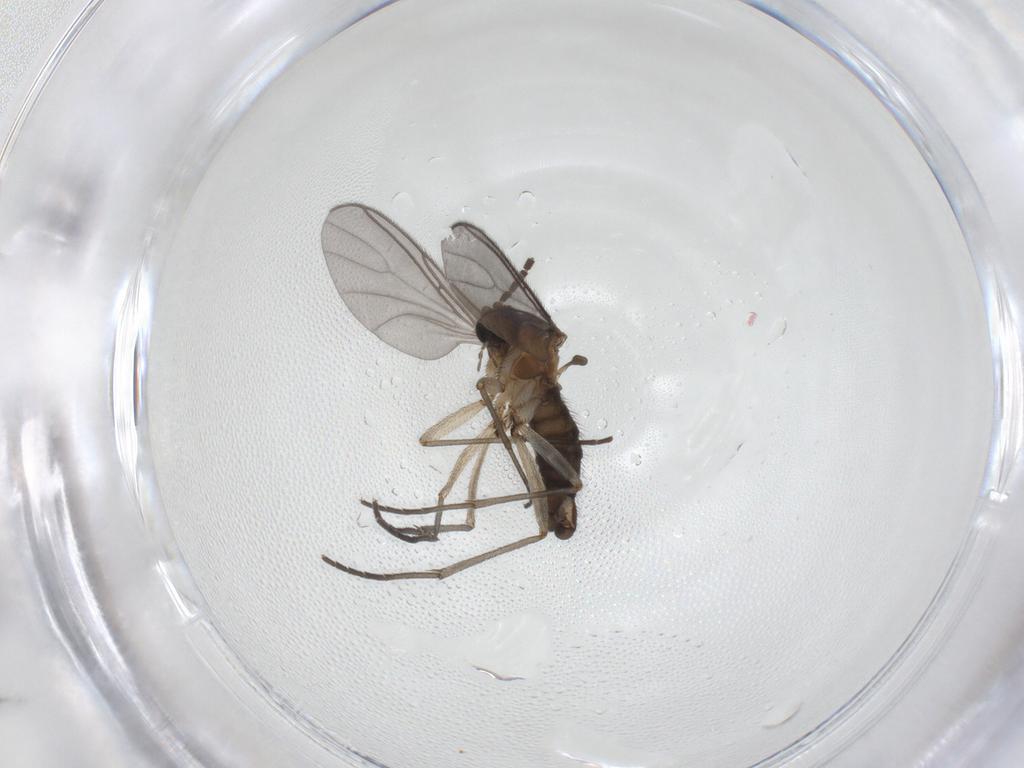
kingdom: Animalia
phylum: Arthropoda
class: Insecta
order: Diptera
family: Sciaridae
